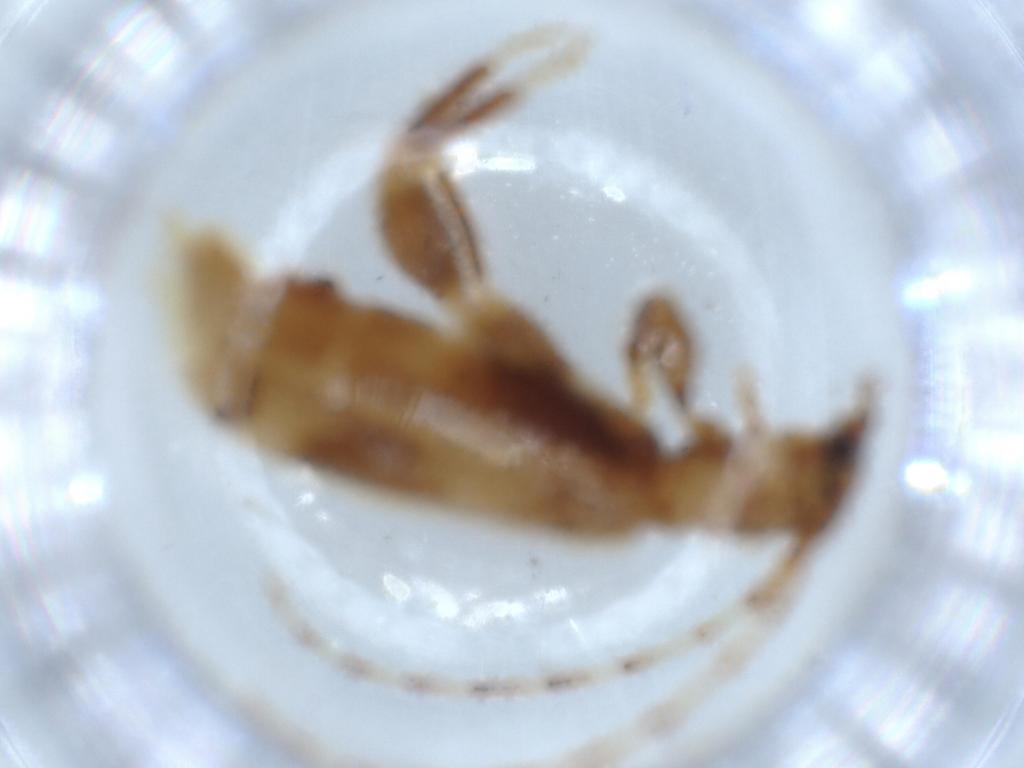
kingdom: Animalia
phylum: Arthropoda
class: Insecta
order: Coleoptera
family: Cerambycidae
